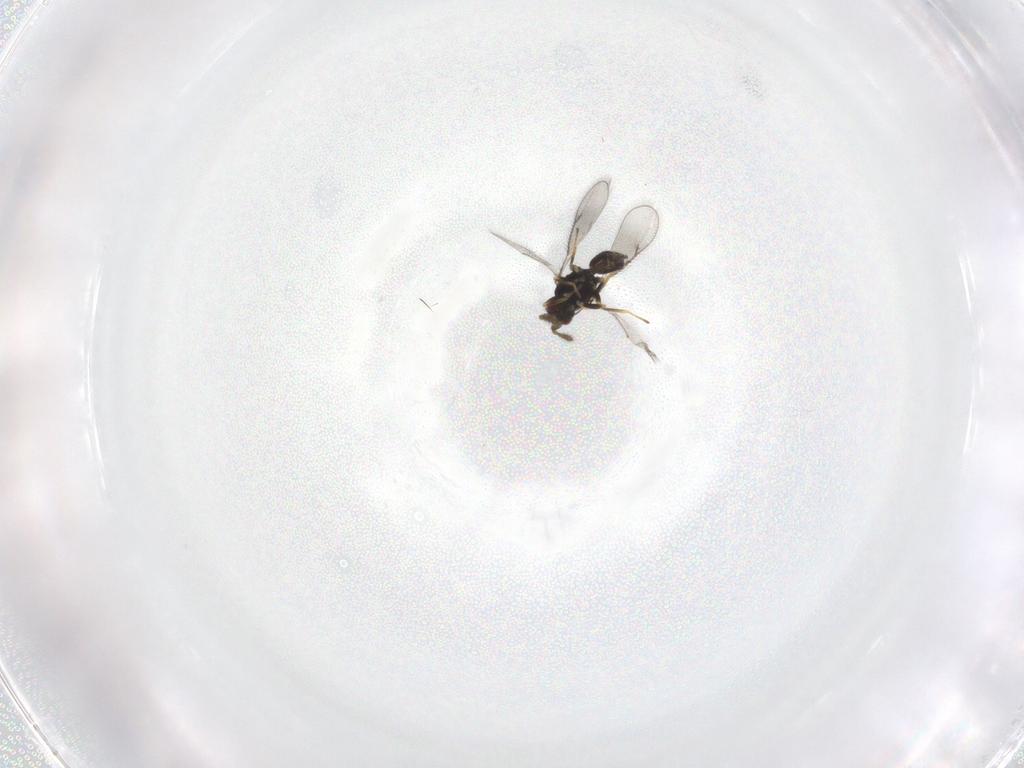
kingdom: Animalia
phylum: Arthropoda
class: Insecta
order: Hymenoptera
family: Eulophidae
